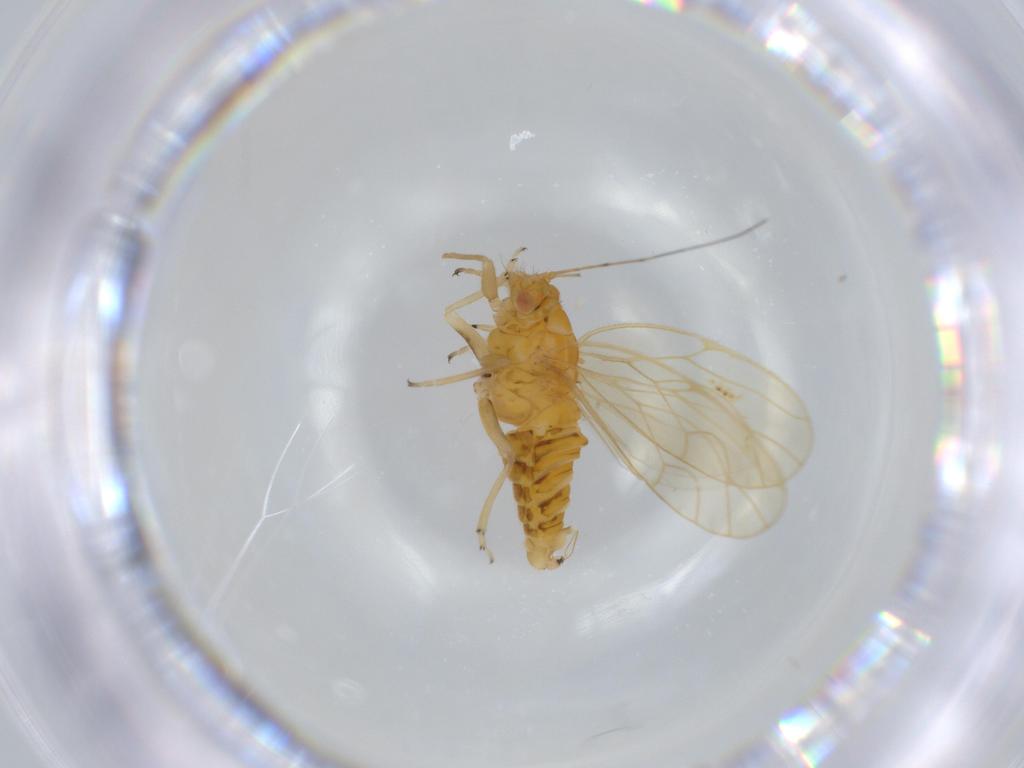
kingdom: Animalia
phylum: Arthropoda
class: Insecta
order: Hemiptera
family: Psyllidae
